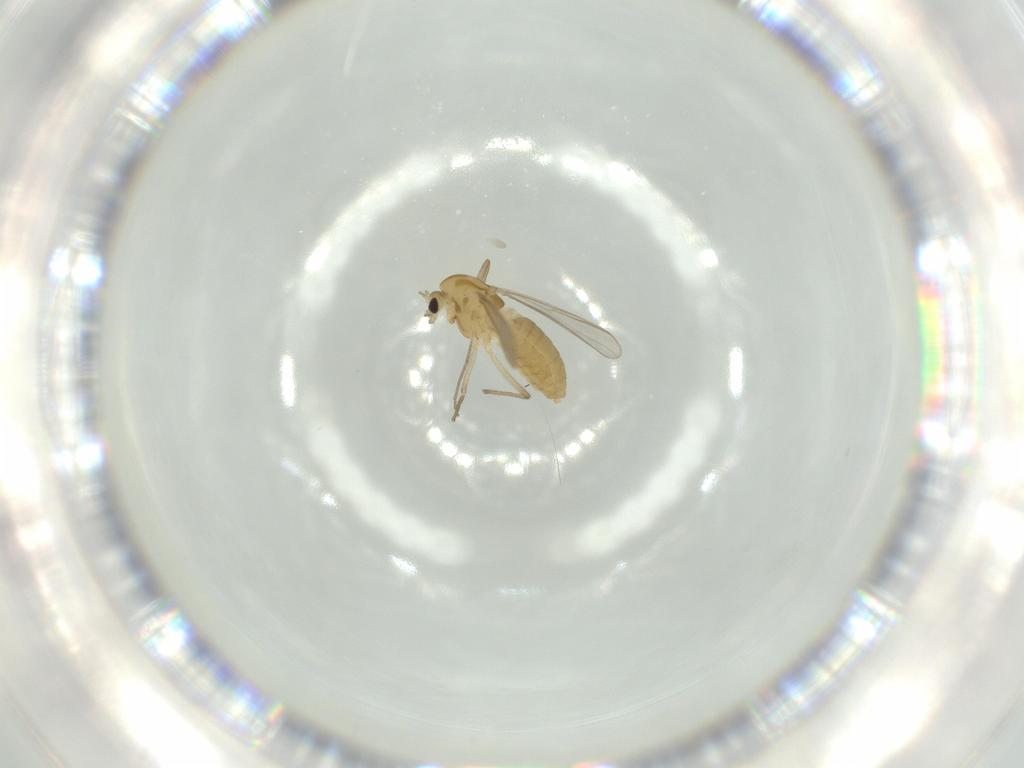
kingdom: Animalia
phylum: Arthropoda
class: Insecta
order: Diptera
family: Chironomidae
